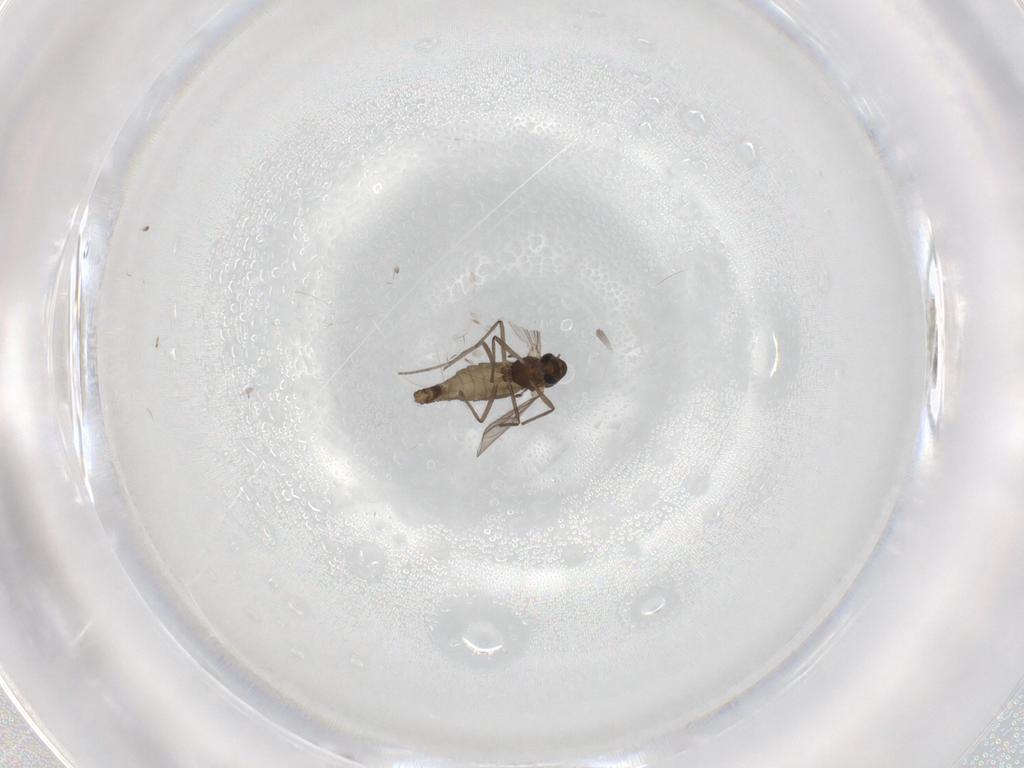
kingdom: Animalia
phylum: Arthropoda
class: Insecta
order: Diptera
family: Chironomidae
